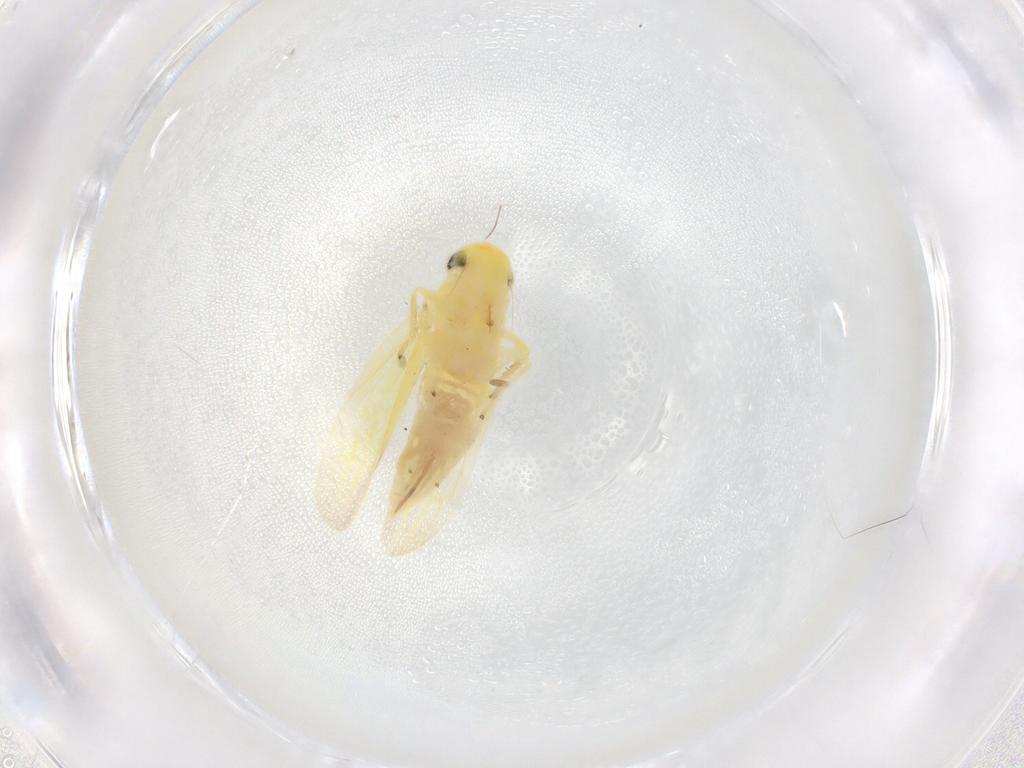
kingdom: Animalia
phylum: Arthropoda
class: Insecta
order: Hemiptera
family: Cicadellidae
